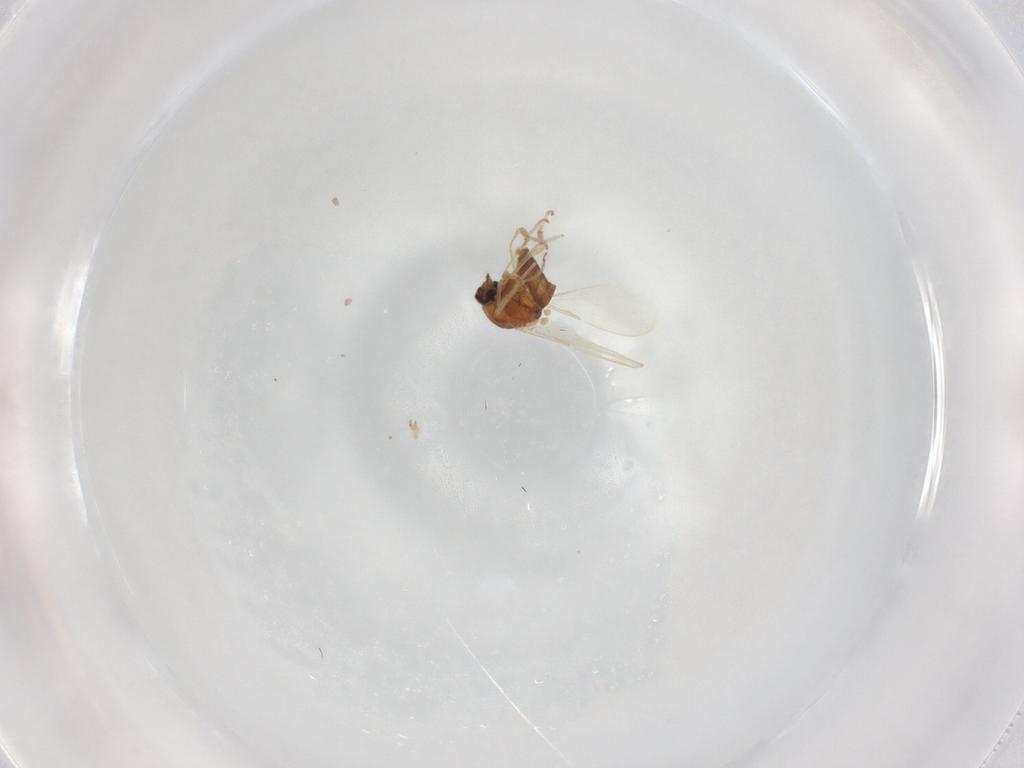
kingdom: Animalia
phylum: Arthropoda
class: Insecta
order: Diptera
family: Ceratopogonidae
